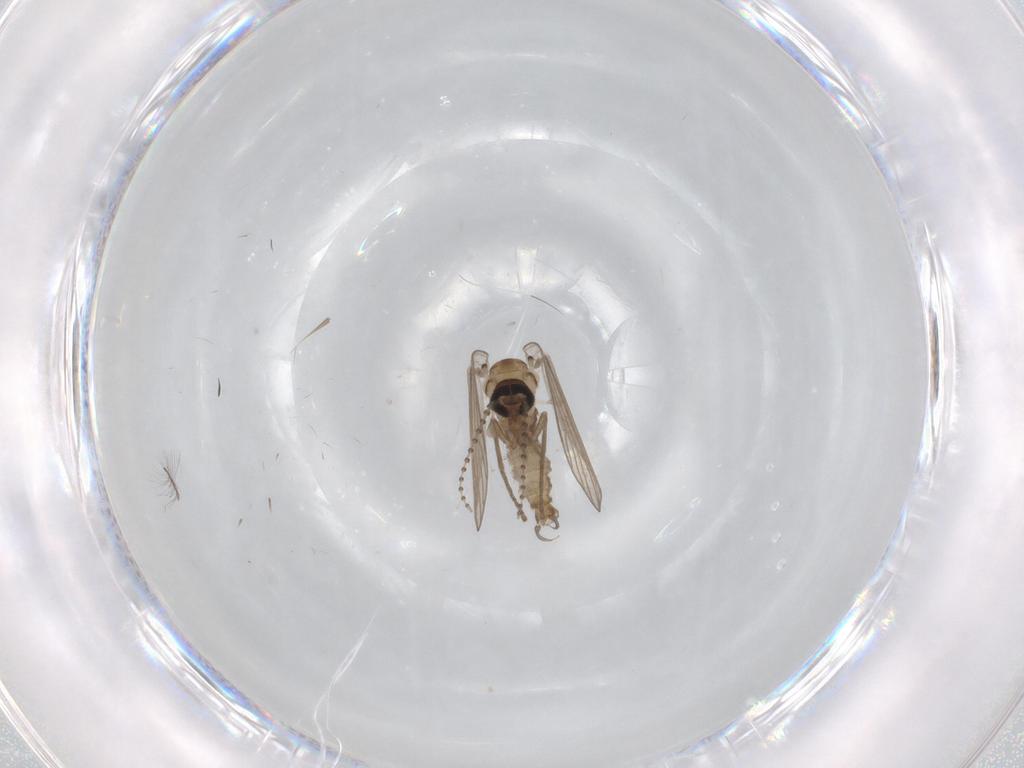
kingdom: Animalia
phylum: Arthropoda
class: Insecta
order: Diptera
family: Psychodidae
